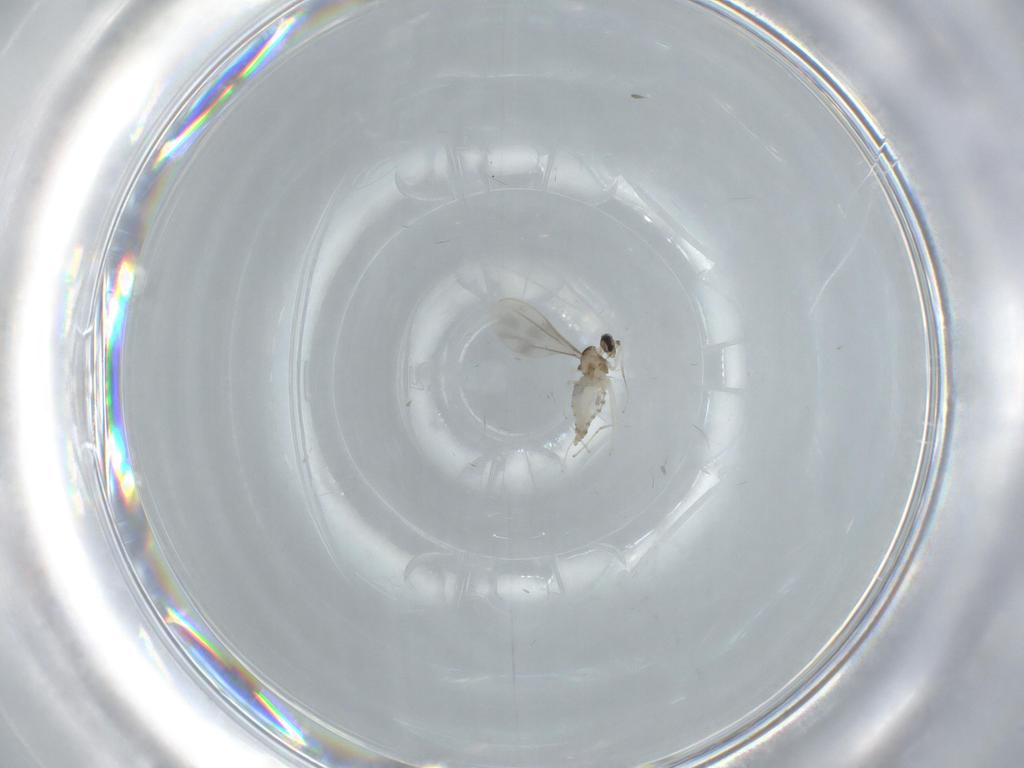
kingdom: Animalia
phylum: Arthropoda
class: Insecta
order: Diptera
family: Cecidomyiidae
